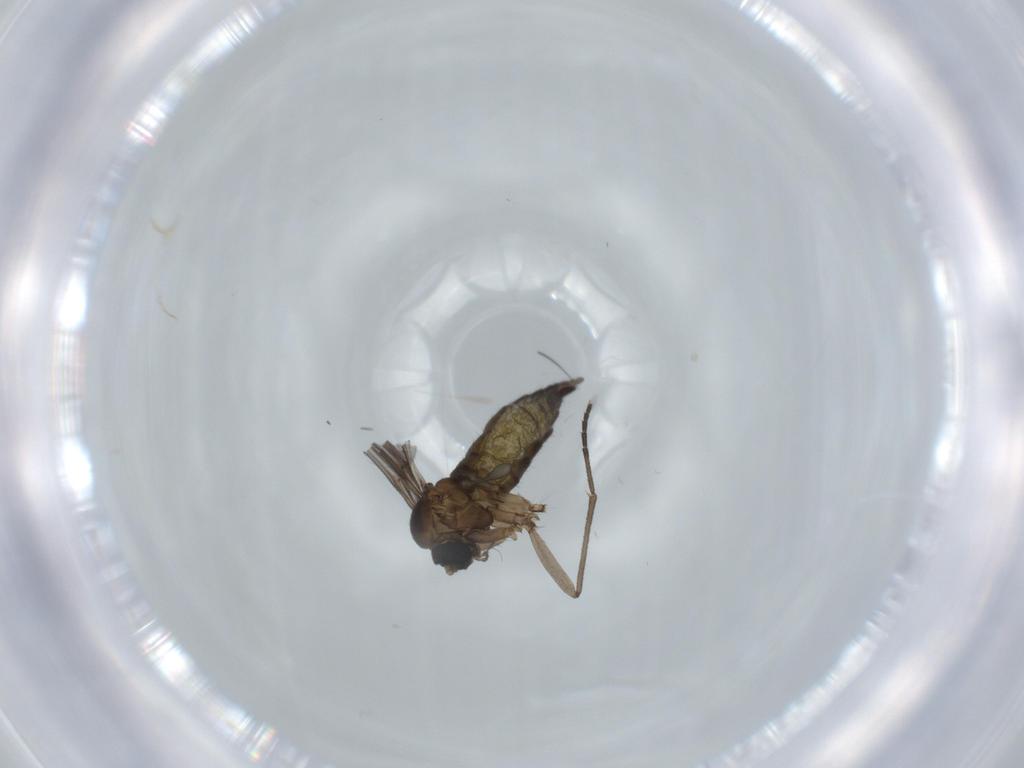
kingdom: Animalia
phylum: Arthropoda
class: Insecta
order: Diptera
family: Sciaridae
